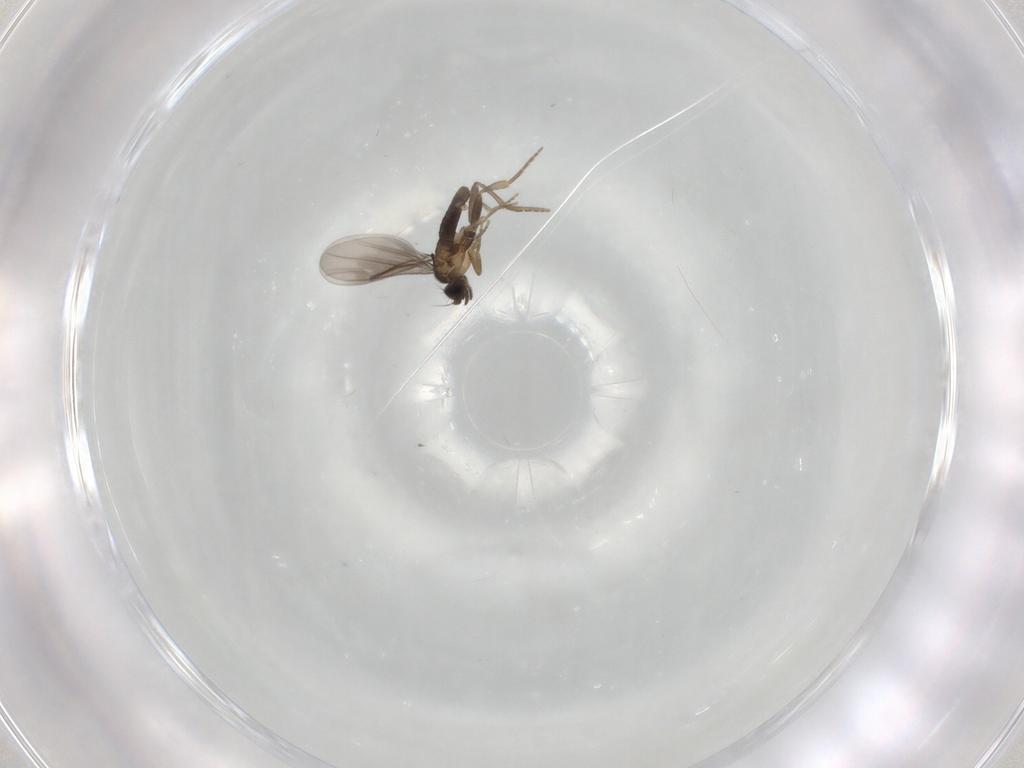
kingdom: Animalia
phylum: Arthropoda
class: Insecta
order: Diptera
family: Phoridae
